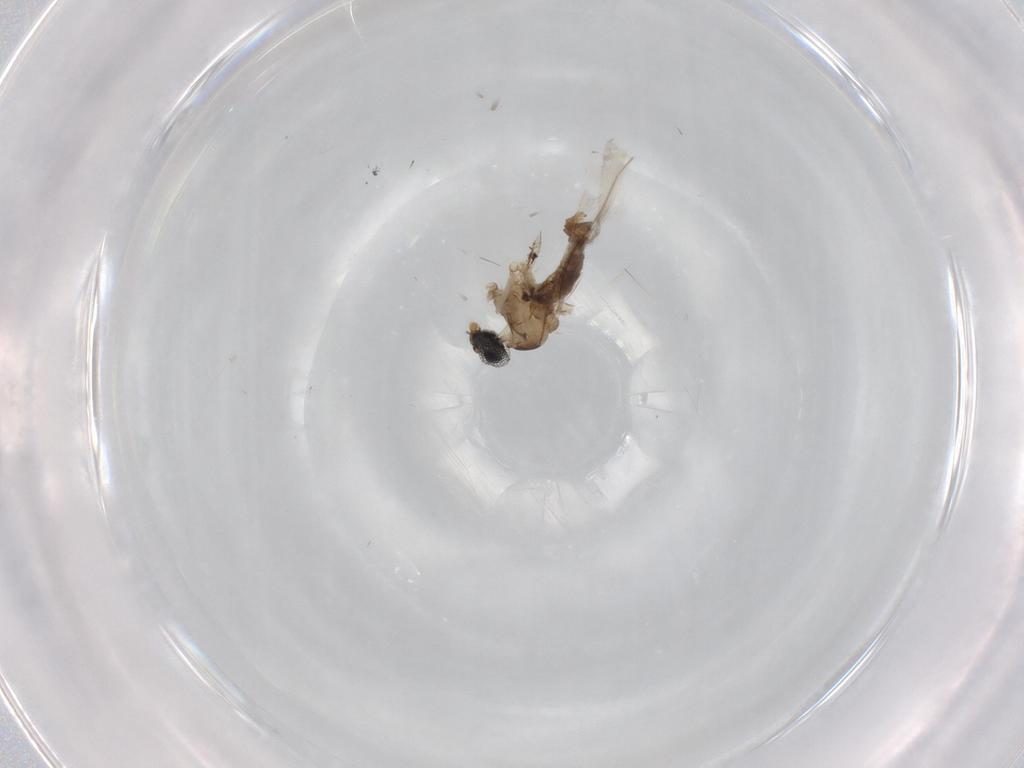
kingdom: Animalia
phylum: Arthropoda
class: Insecta
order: Diptera
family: Cecidomyiidae
